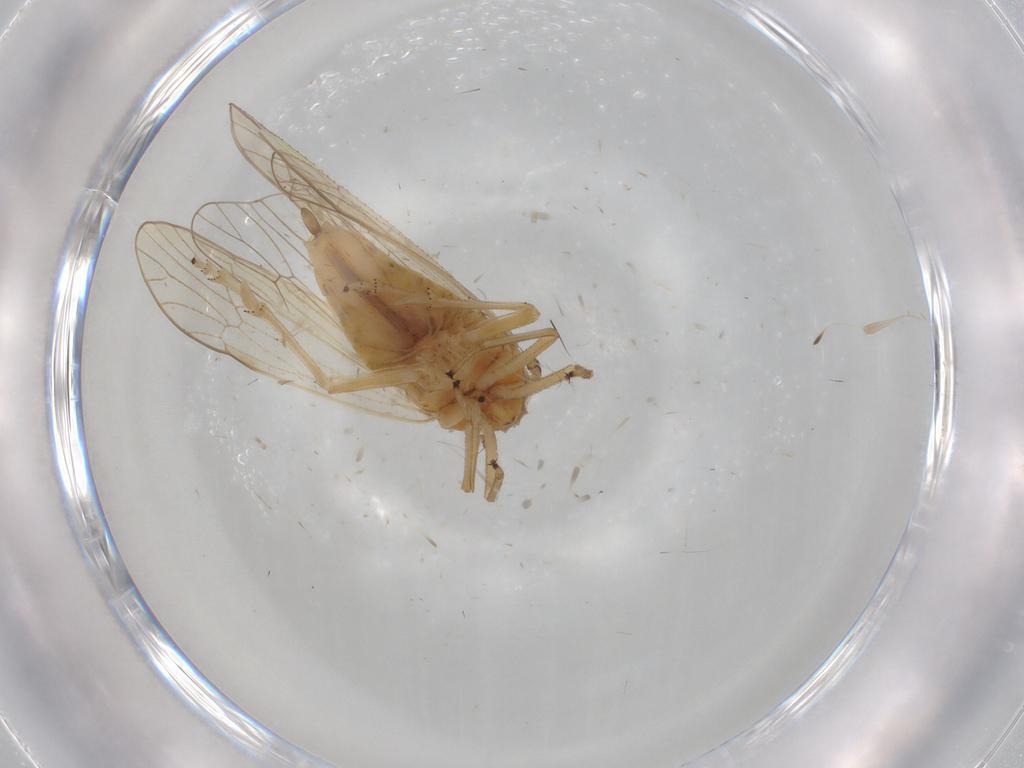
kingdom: Animalia
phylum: Arthropoda
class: Insecta
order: Hemiptera
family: Delphacidae
